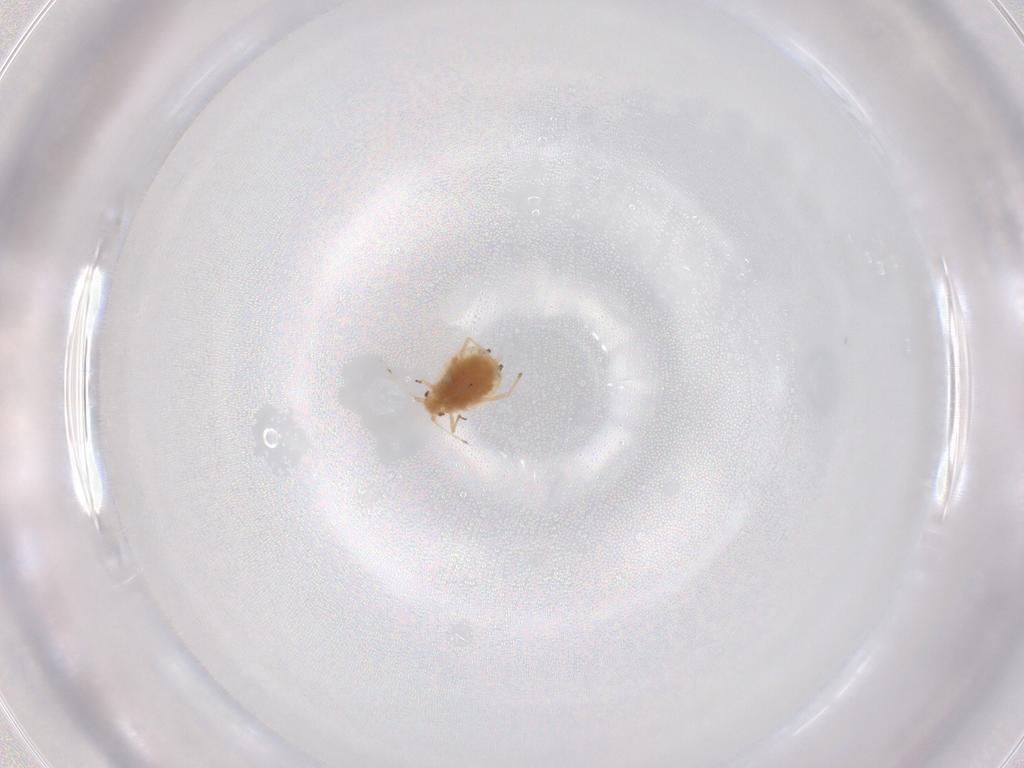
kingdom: Animalia
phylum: Arthropoda
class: Insecta
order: Hemiptera
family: Aphididae
